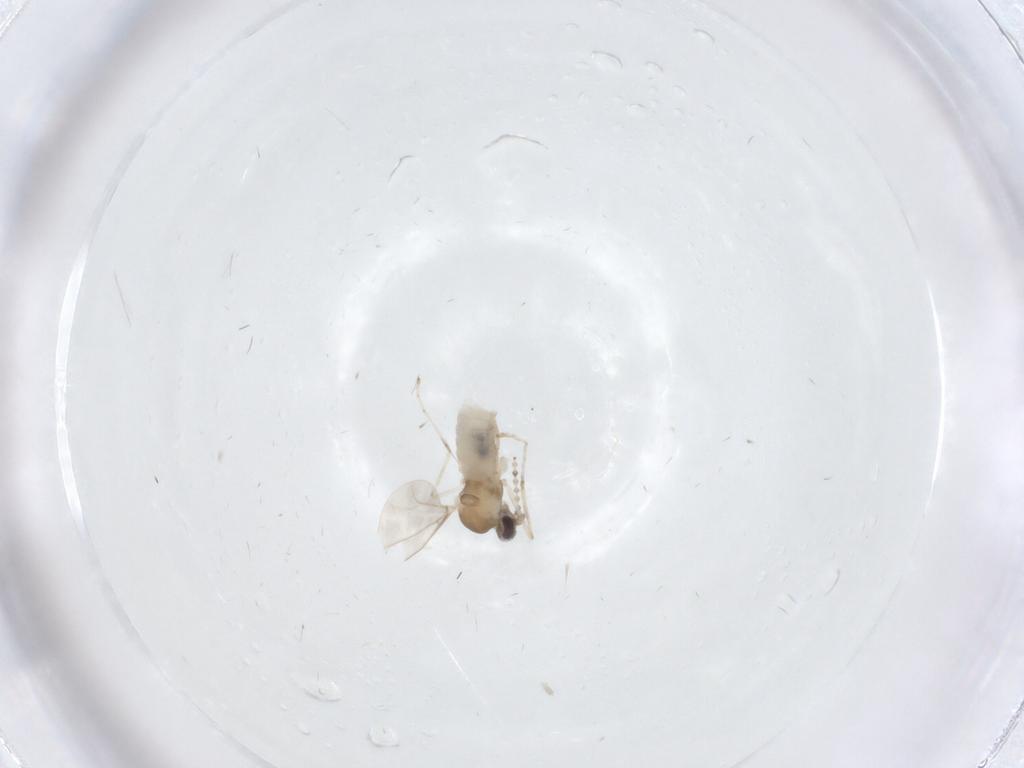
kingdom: Animalia
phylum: Arthropoda
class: Insecta
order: Diptera
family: Cecidomyiidae
